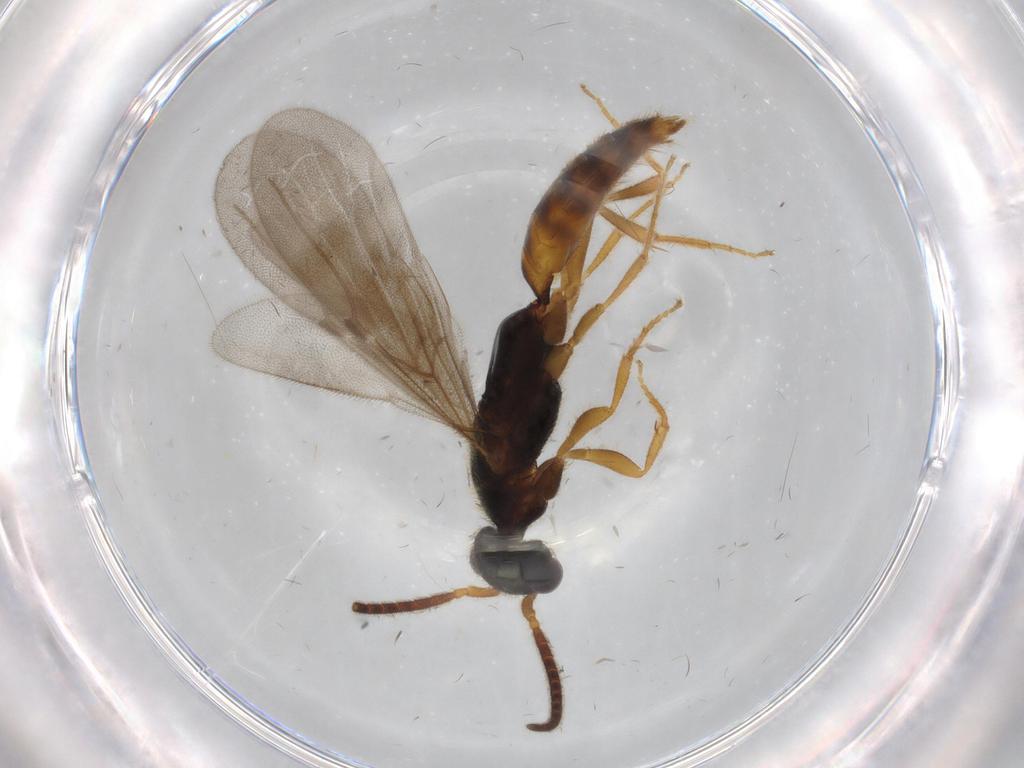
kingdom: Animalia
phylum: Arthropoda
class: Insecta
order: Hymenoptera
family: Bethylidae
